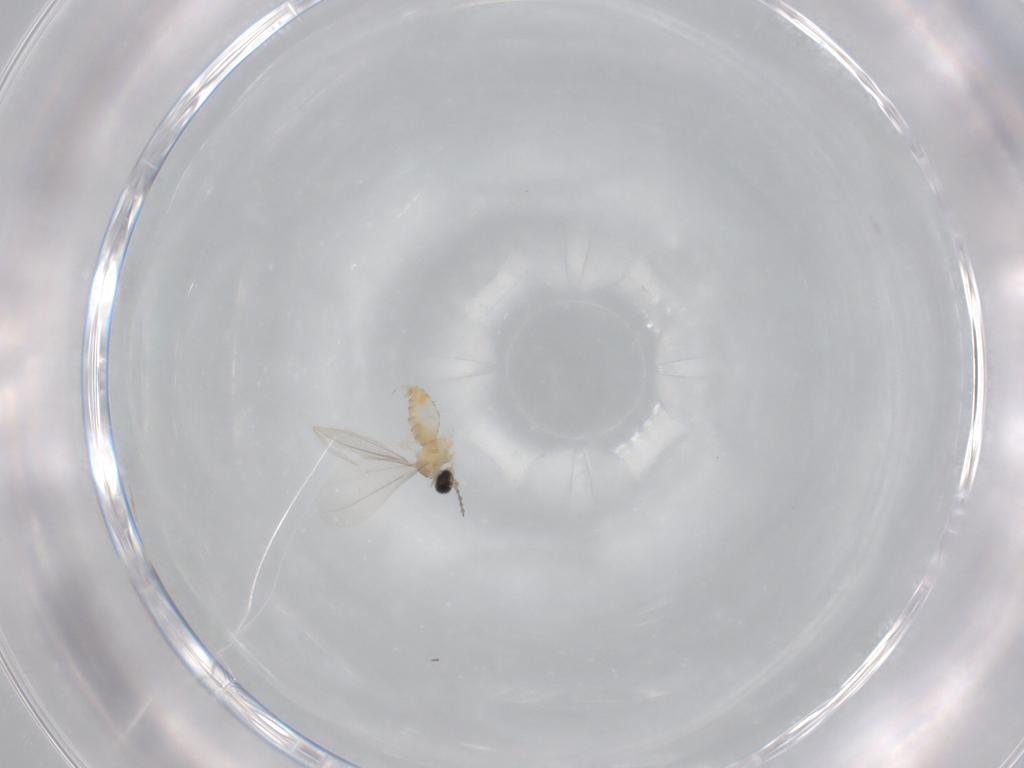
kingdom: Animalia
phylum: Arthropoda
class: Insecta
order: Diptera
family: Cecidomyiidae
